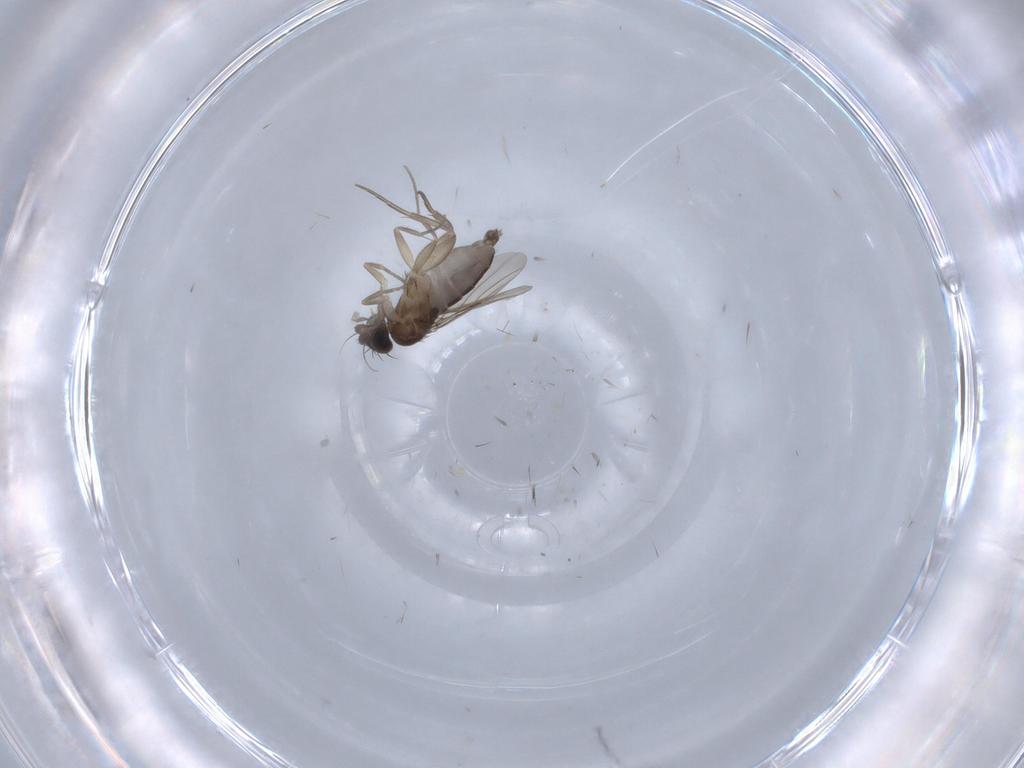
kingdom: Animalia
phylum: Arthropoda
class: Insecta
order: Diptera
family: Phoridae
